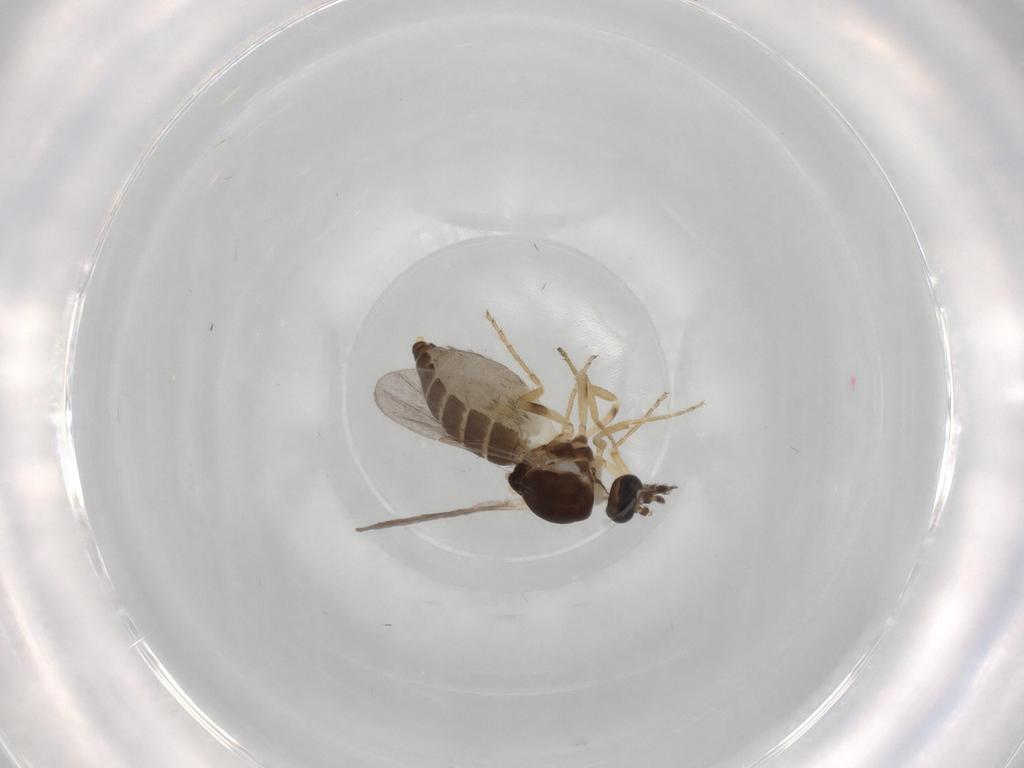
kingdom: Animalia
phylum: Arthropoda
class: Insecta
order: Diptera
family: Ceratopogonidae
